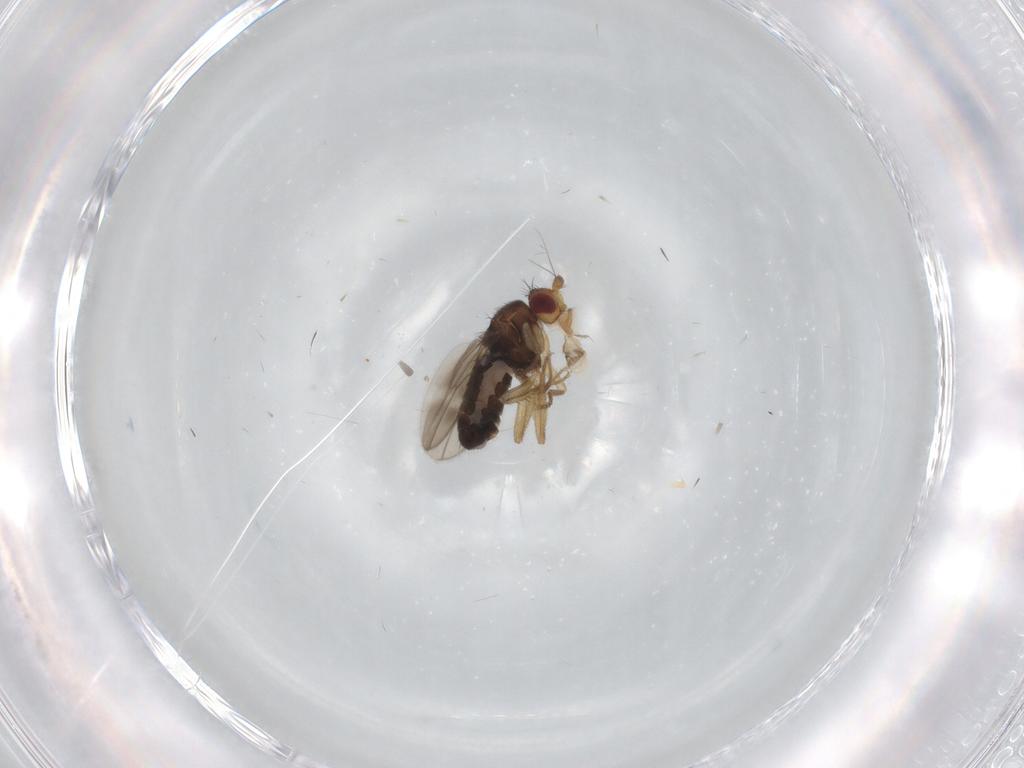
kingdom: Animalia
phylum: Arthropoda
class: Insecta
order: Diptera
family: Sphaeroceridae
